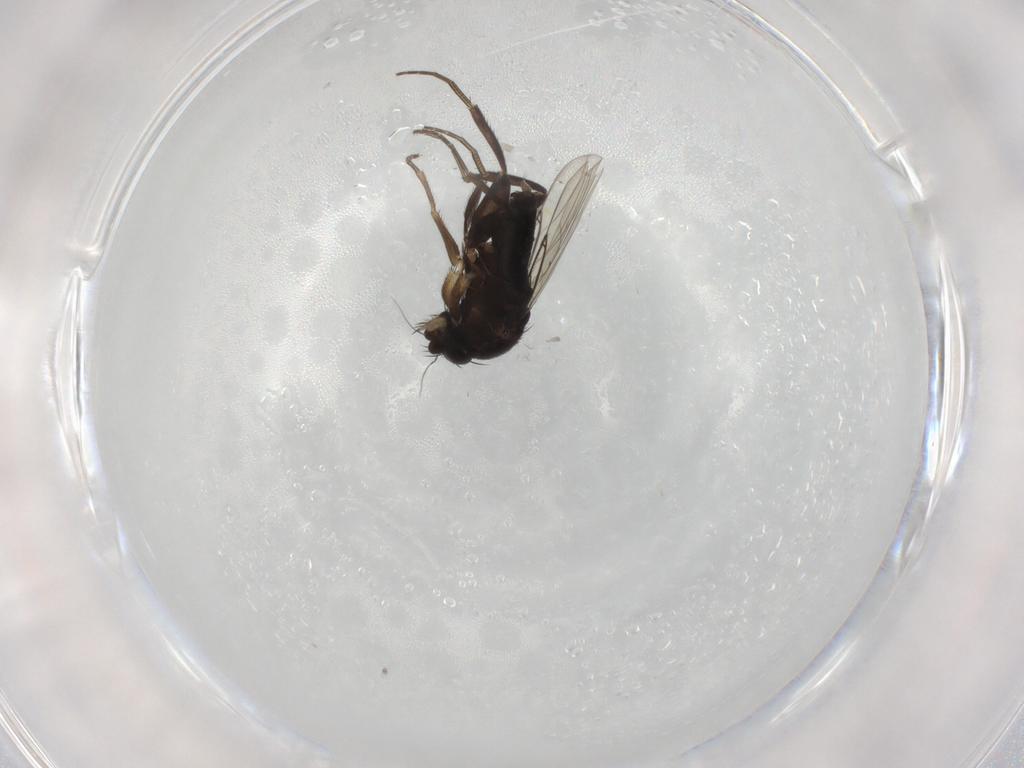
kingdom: Animalia
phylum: Arthropoda
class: Insecta
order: Diptera
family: Phoridae
